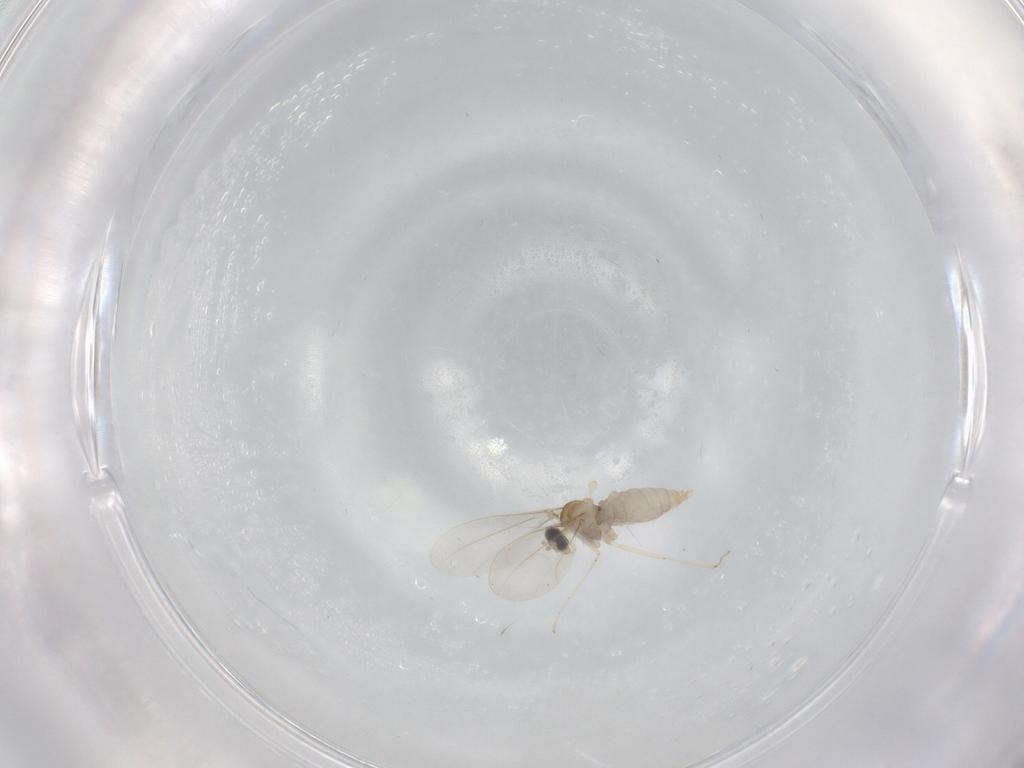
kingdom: Animalia
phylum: Arthropoda
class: Insecta
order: Diptera
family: Cecidomyiidae
